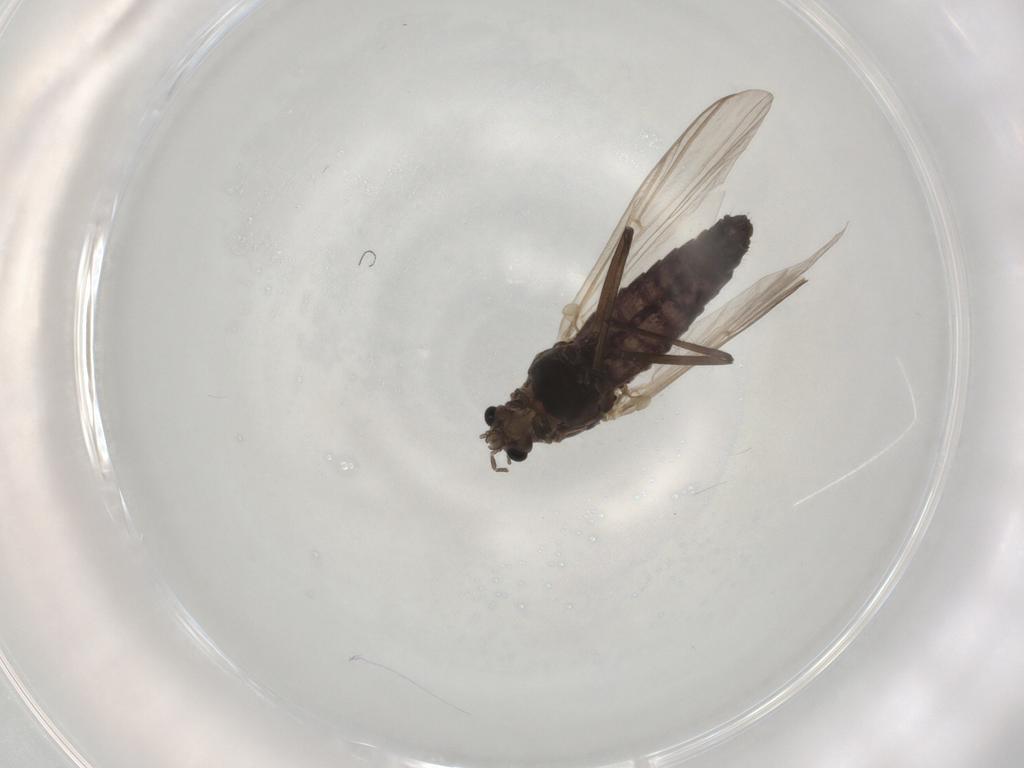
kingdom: Animalia
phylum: Arthropoda
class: Insecta
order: Diptera
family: Chironomidae
